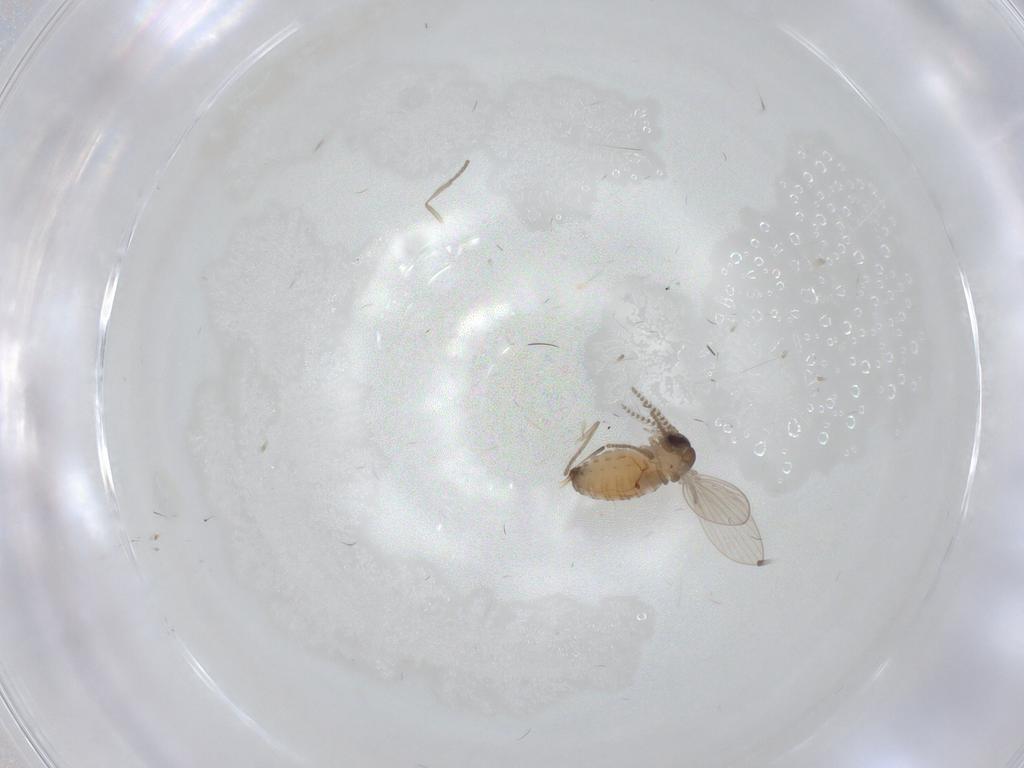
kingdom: Animalia
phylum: Arthropoda
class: Insecta
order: Diptera
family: Psychodidae
